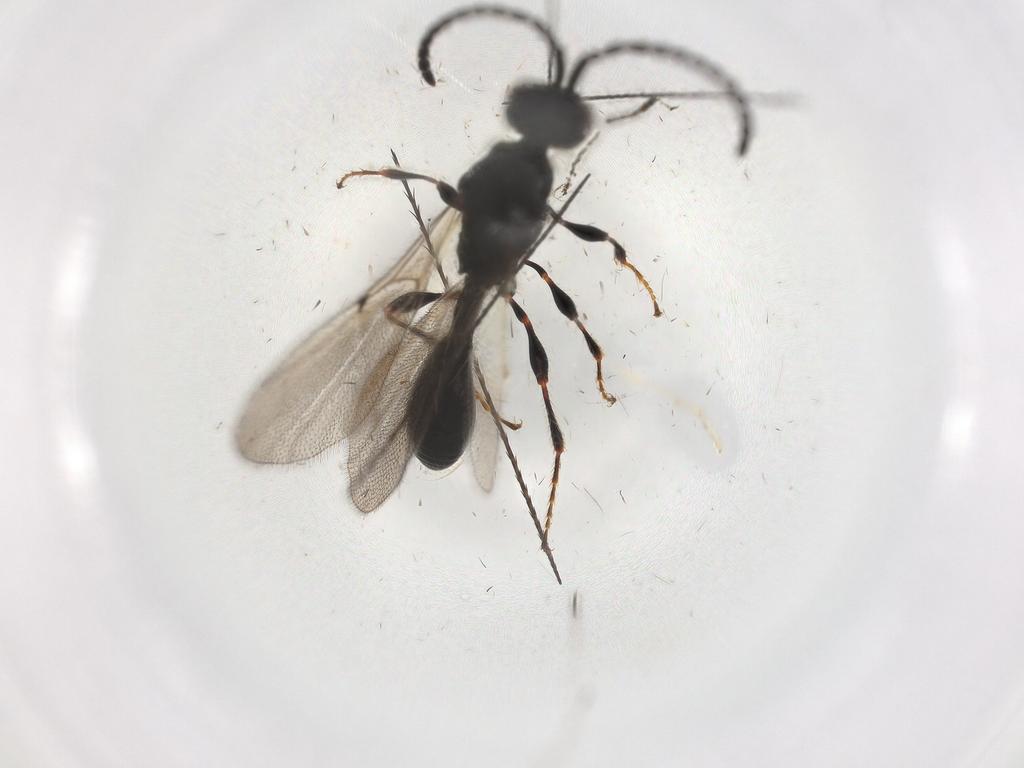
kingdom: Animalia
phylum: Arthropoda
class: Insecta
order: Hymenoptera
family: Diapriidae
